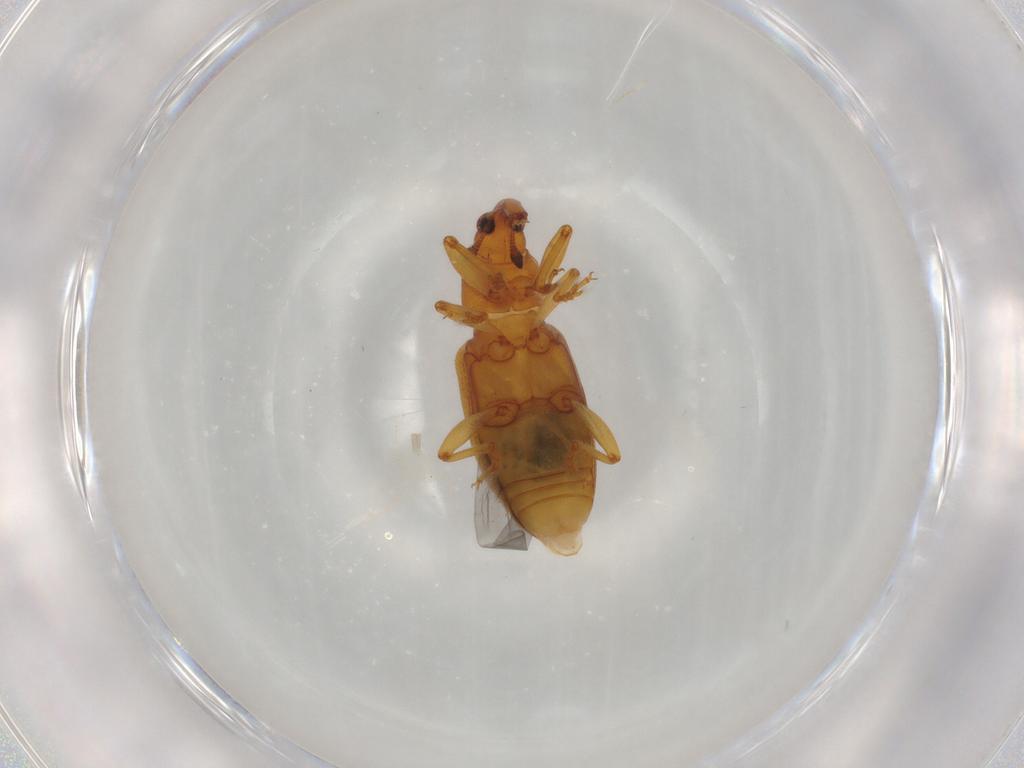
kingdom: Animalia
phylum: Arthropoda
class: Insecta
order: Coleoptera
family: Curculionidae
